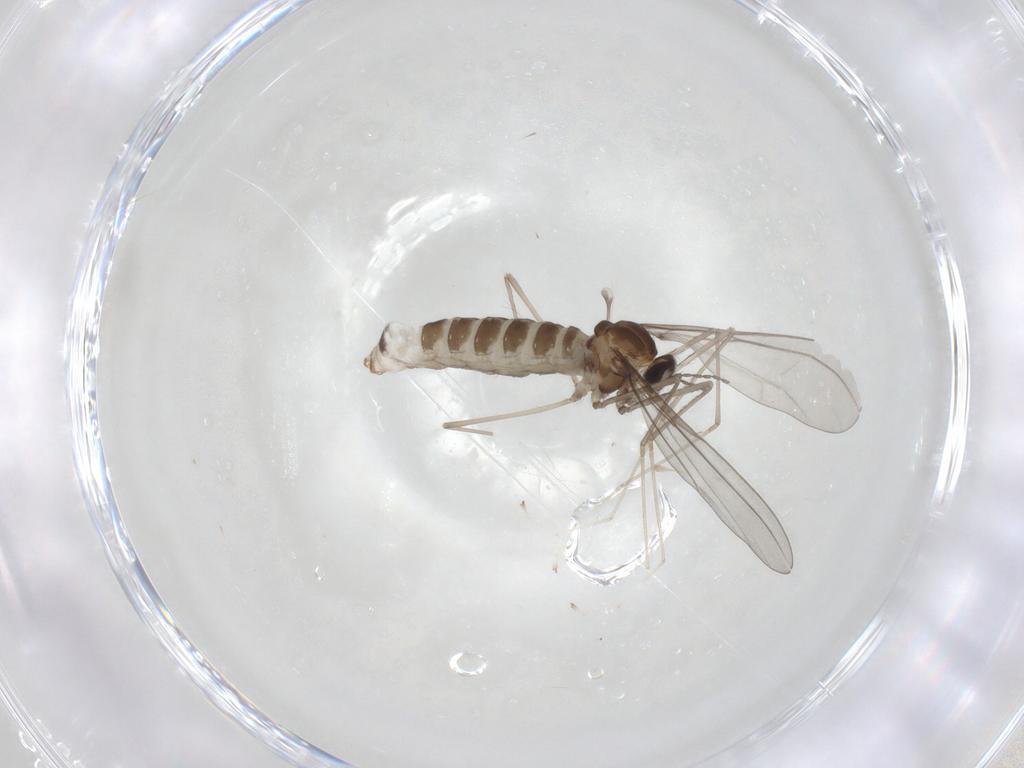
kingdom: Animalia
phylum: Arthropoda
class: Insecta
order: Diptera
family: Cecidomyiidae
